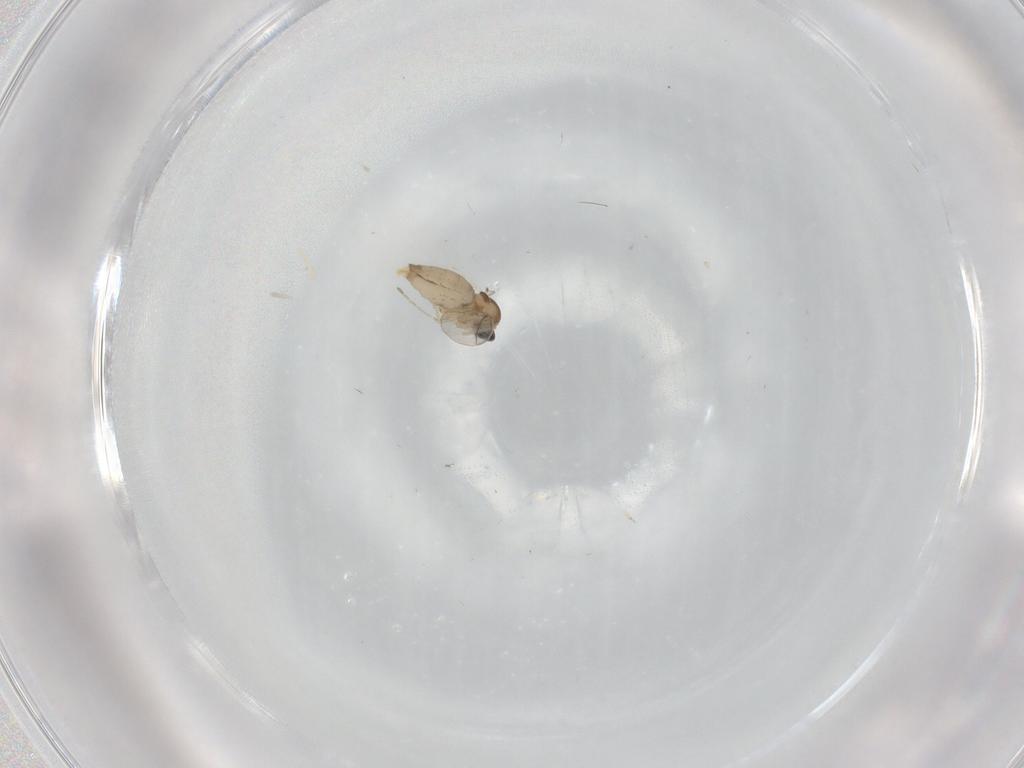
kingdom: Animalia
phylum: Arthropoda
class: Insecta
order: Diptera
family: Cecidomyiidae
